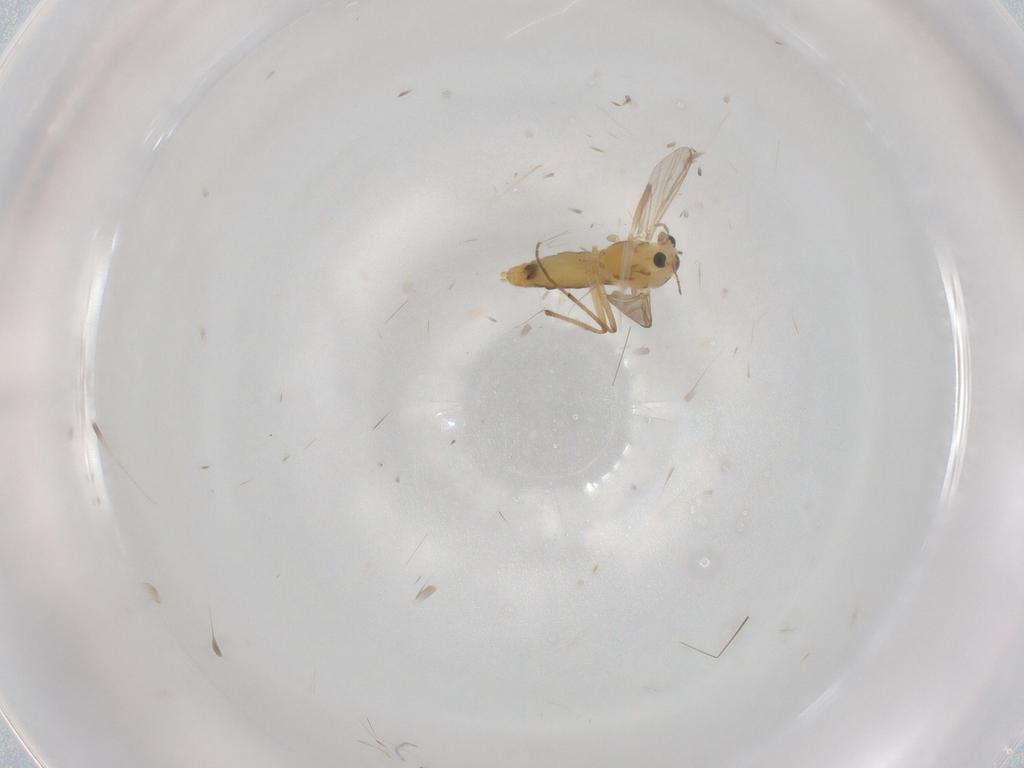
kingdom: Animalia
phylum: Arthropoda
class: Insecta
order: Diptera
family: Chironomidae
